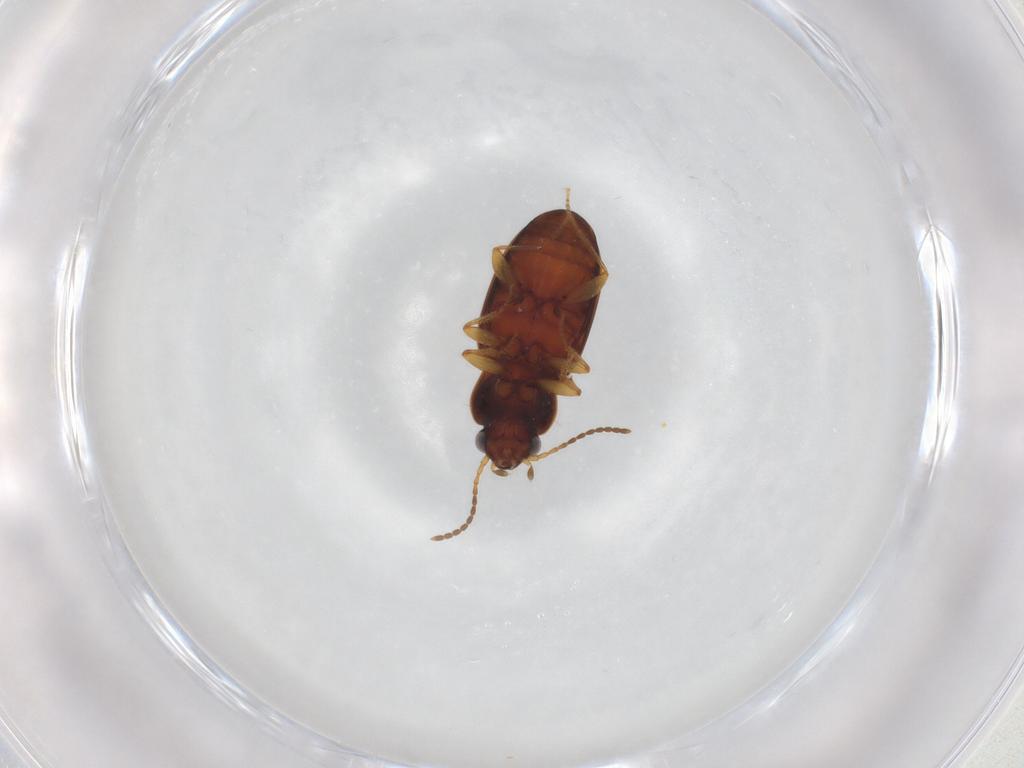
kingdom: Animalia
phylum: Arthropoda
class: Insecta
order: Coleoptera
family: Carabidae
